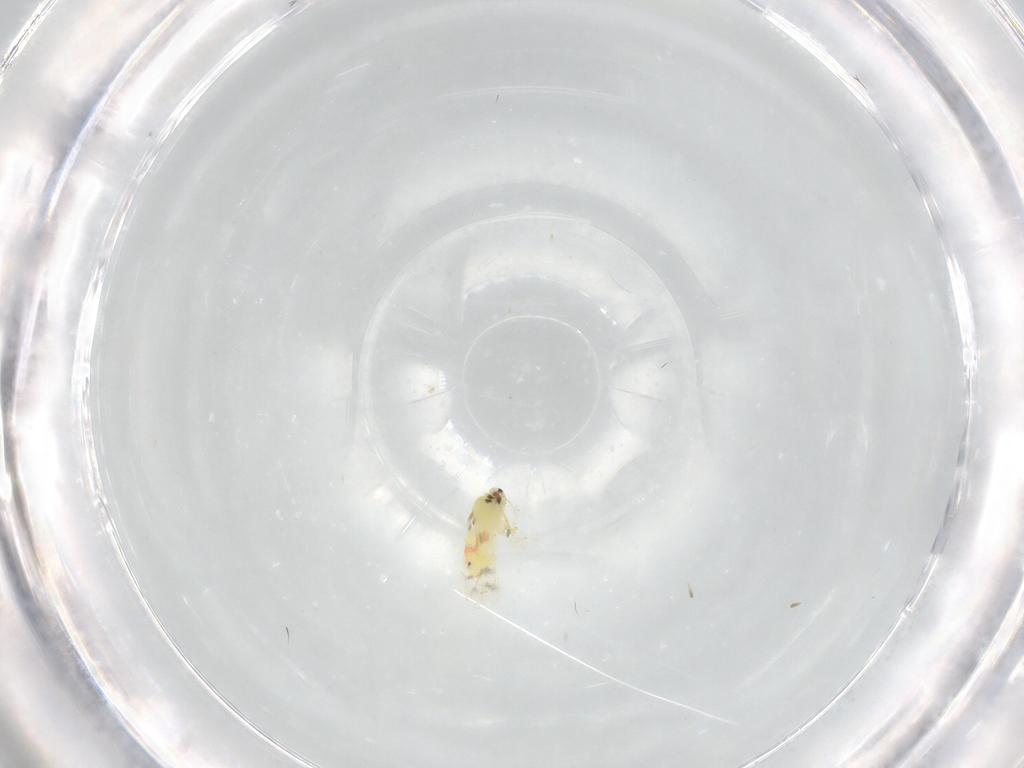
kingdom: Animalia
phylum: Arthropoda
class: Insecta
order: Hemiptera
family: Aleyrodidae
